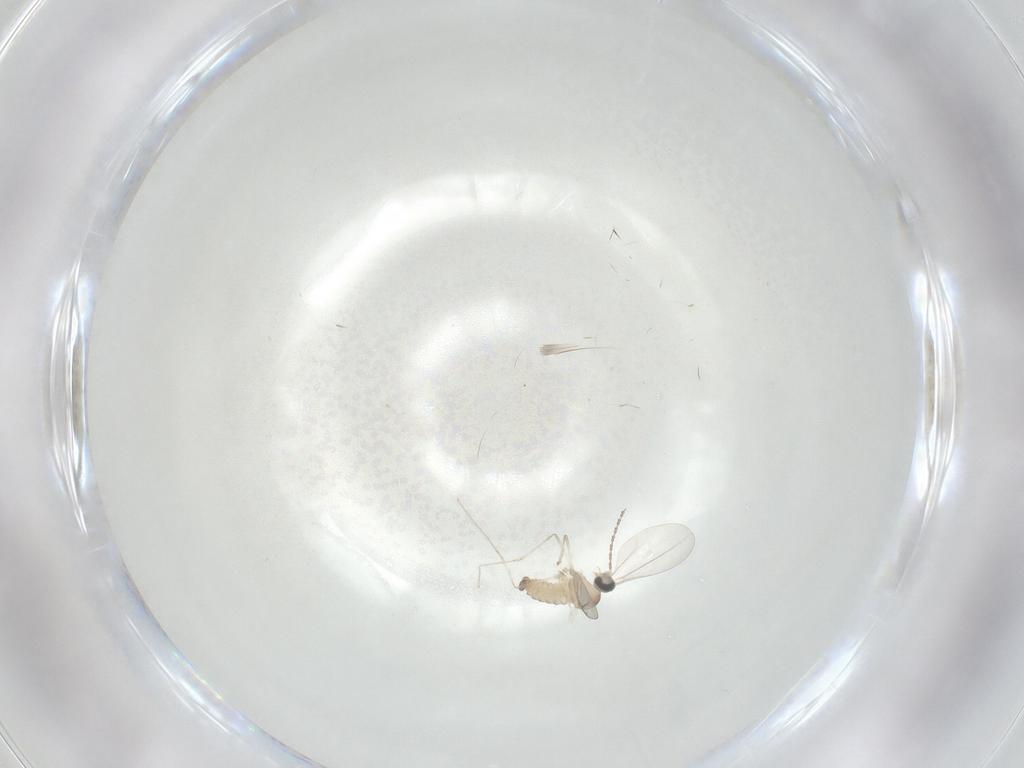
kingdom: Animalia
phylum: Arthropoda
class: Insecta
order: Diptera
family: Cecidomyiidae
